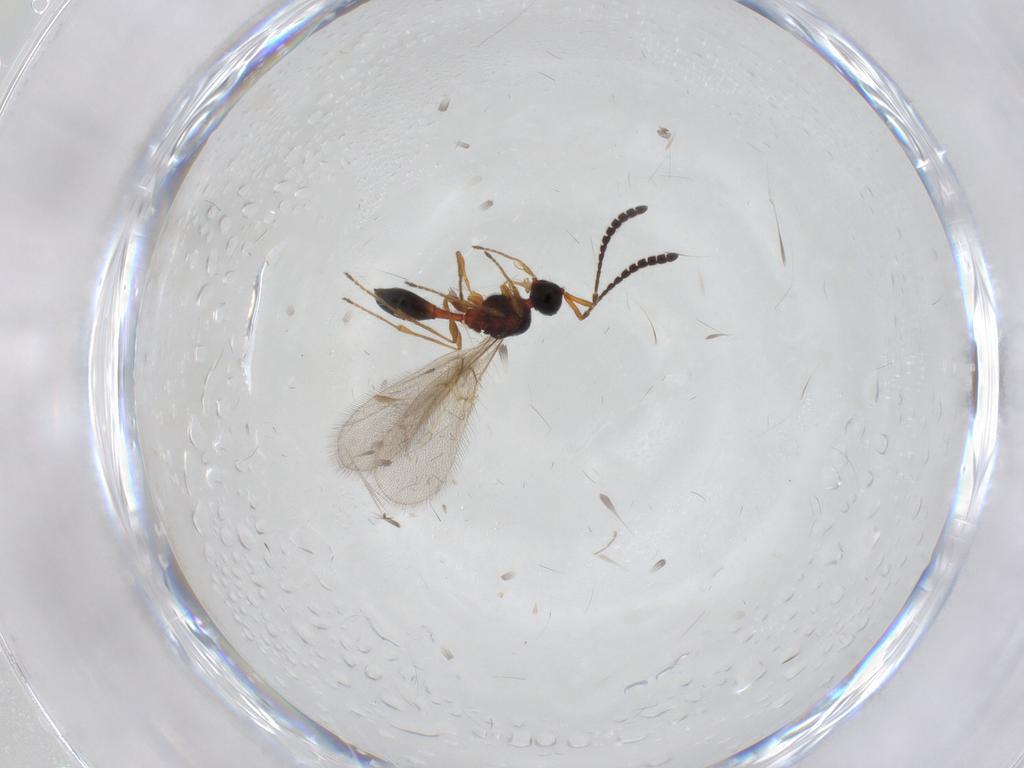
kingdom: Animalia
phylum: Arthropoda
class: Insecta
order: Hymenoptera
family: Diapriidae
